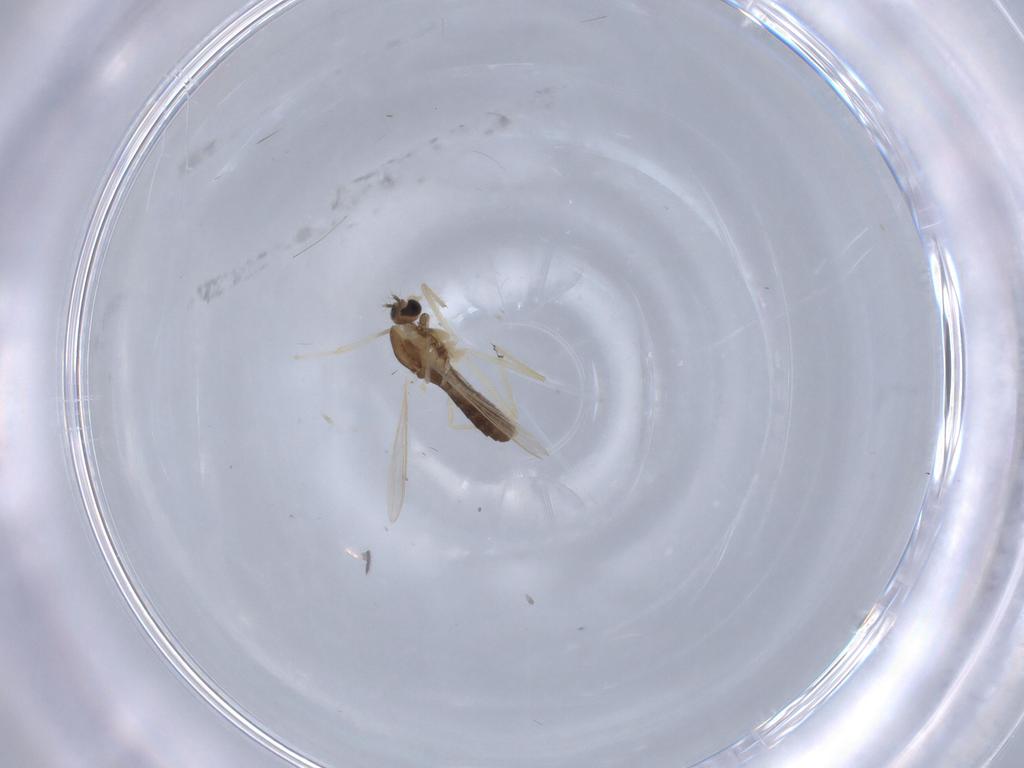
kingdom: Animalia
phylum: Arthropoda
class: Insecta
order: Diptera
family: Chironomidae
